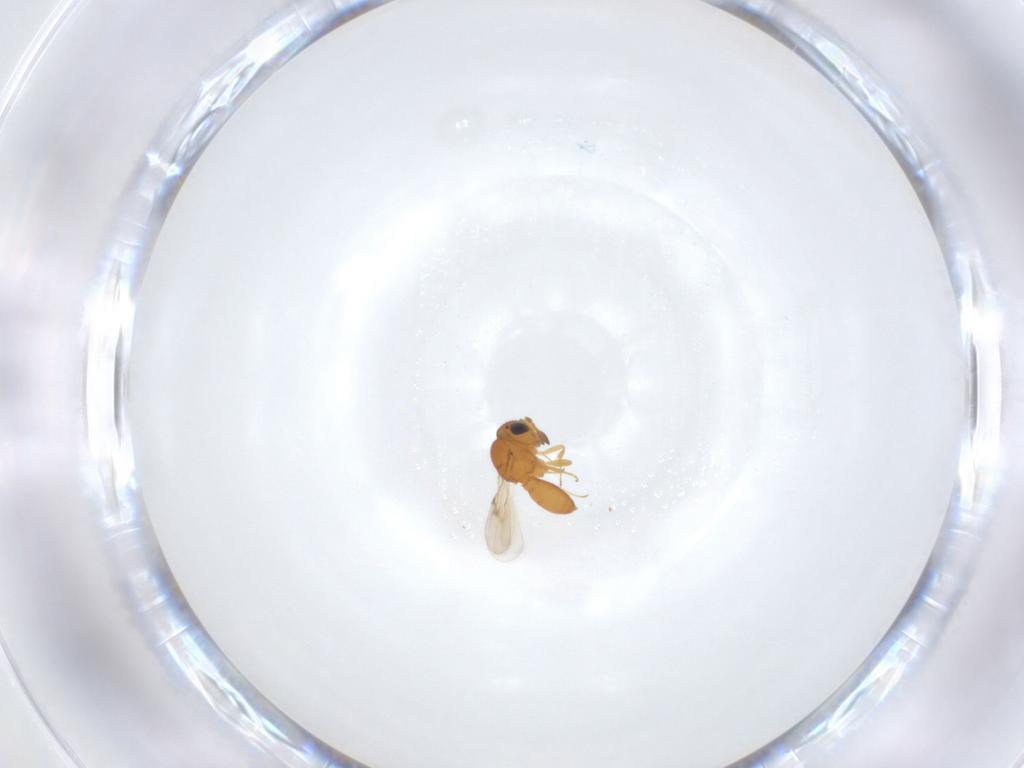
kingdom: Animalia
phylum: Arthropoda
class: Insecta
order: Hymenoptera
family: Scelionidae
